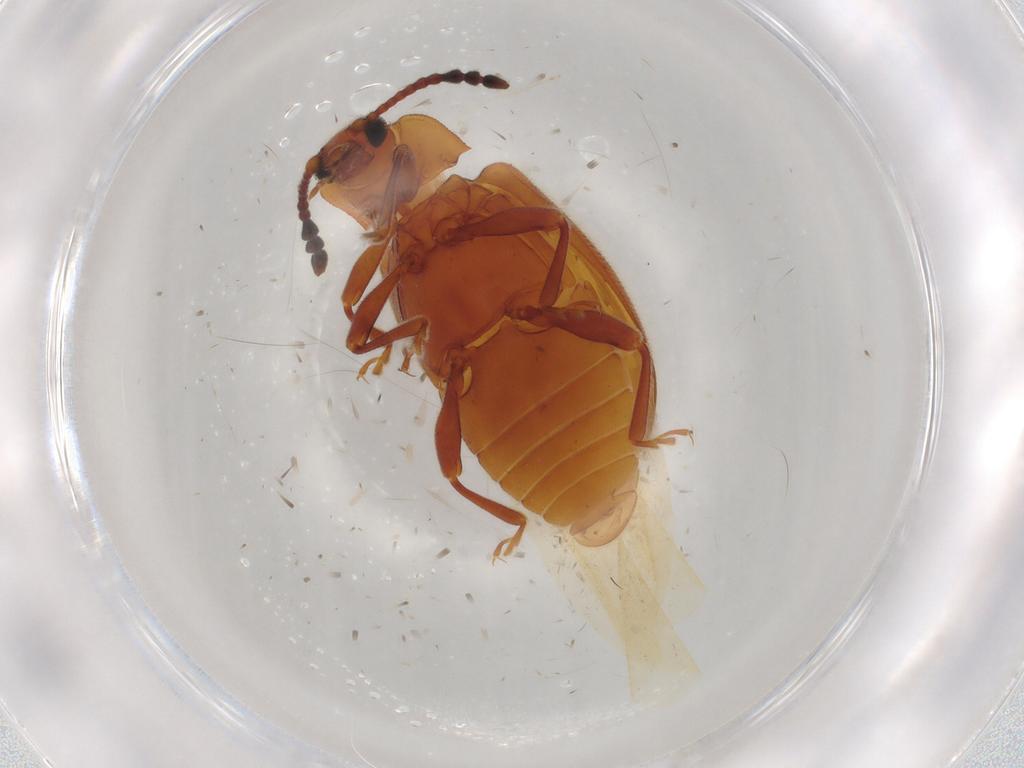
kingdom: Animalia
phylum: Arthropoda
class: Insecta
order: Coleoptera
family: Endomychidae
